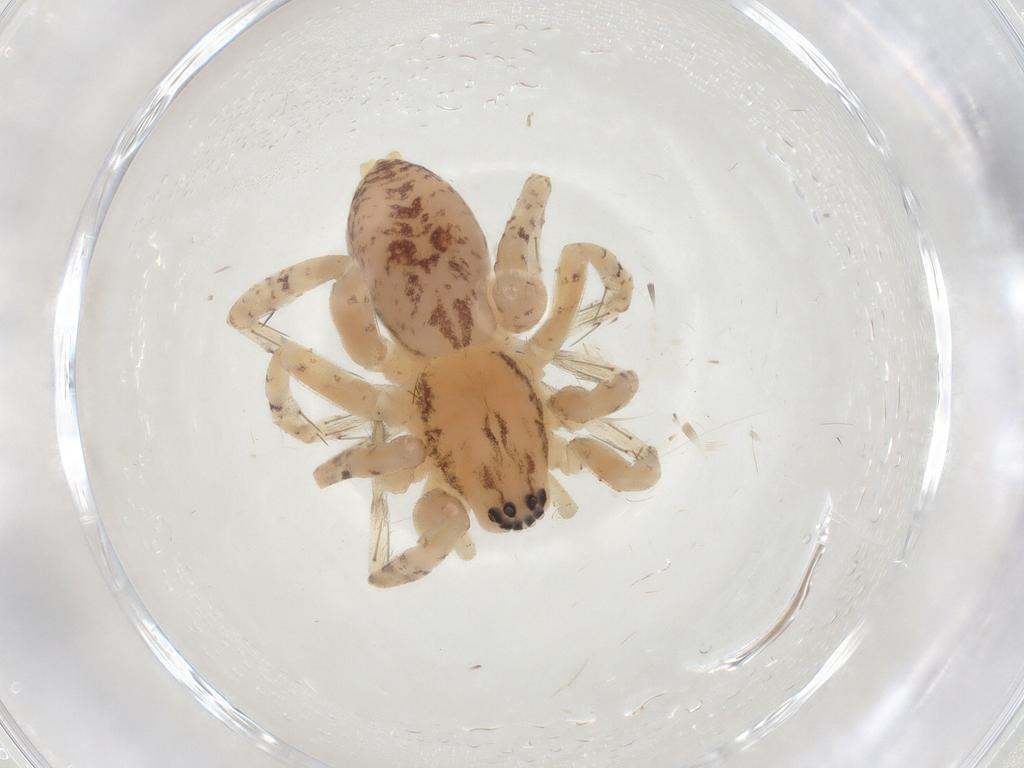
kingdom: Animalia
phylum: Arthropoda
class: Arachnida
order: Araneae
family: Anyphaenidae
